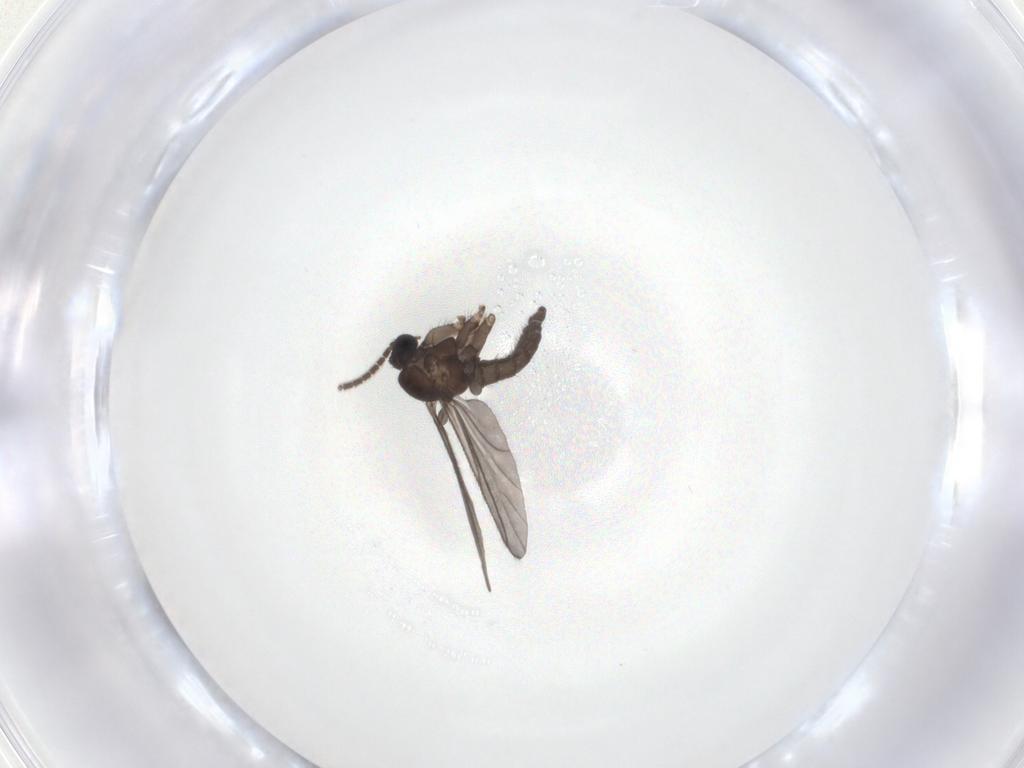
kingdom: Animalia
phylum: Arthropoda
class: Insecta
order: Diptera
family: Sciaridae
